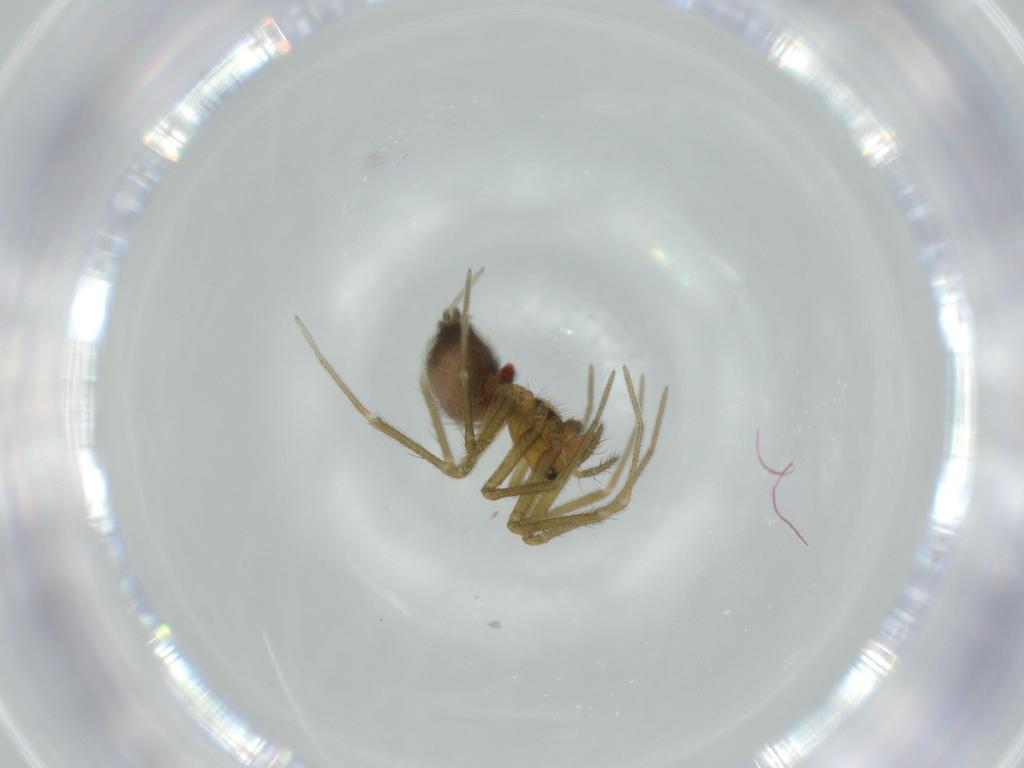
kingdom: Animalia
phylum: Arthropoda
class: Arachnida
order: Araneae
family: Linyphiidae
